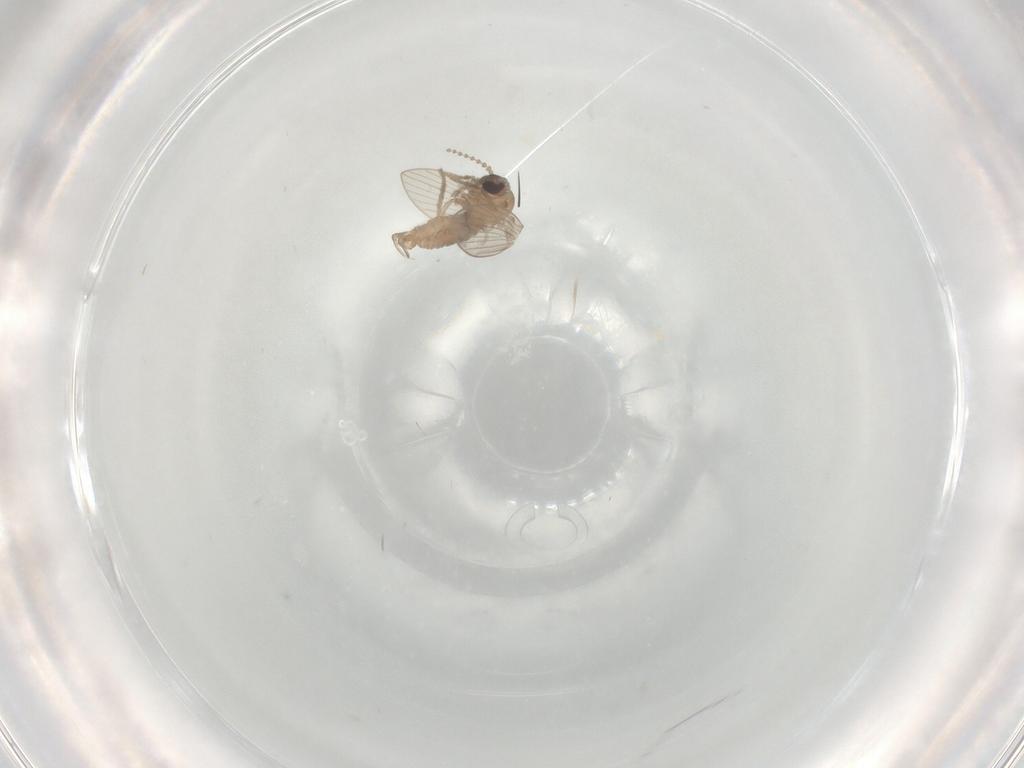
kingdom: Animalia
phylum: Arthropoda
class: Insecta
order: Diptera
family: Psychodidae
